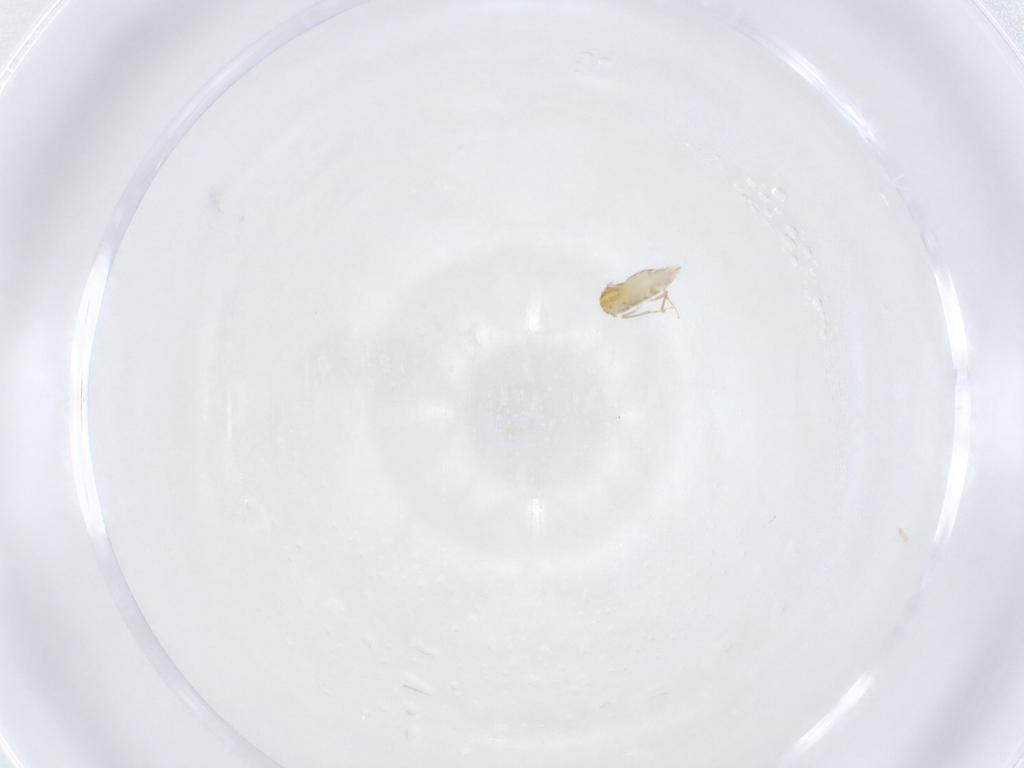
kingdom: Animalia
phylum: Arthropoda
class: Insecta
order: Hymenoptera
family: Aphelinidae
